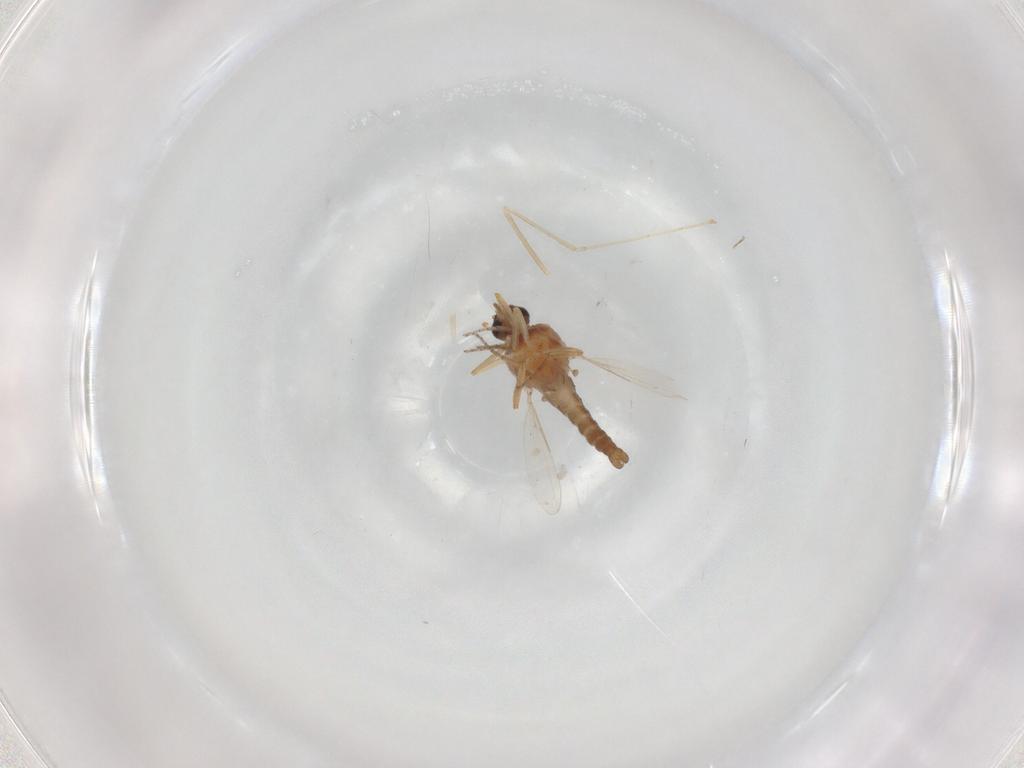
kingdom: Animalia
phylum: Arthropoda
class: Insecta
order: Diptera
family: Ceratopogonidae
